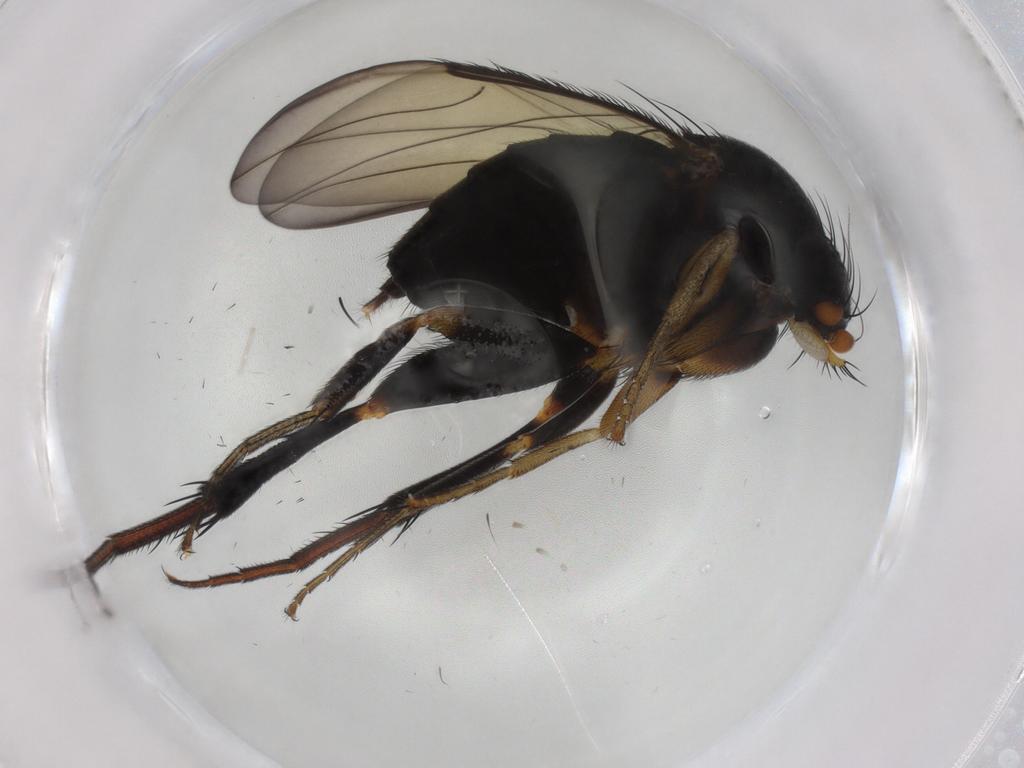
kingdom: Animalia
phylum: Arthropoda
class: Insecta
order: Diptera
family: Phoridae
